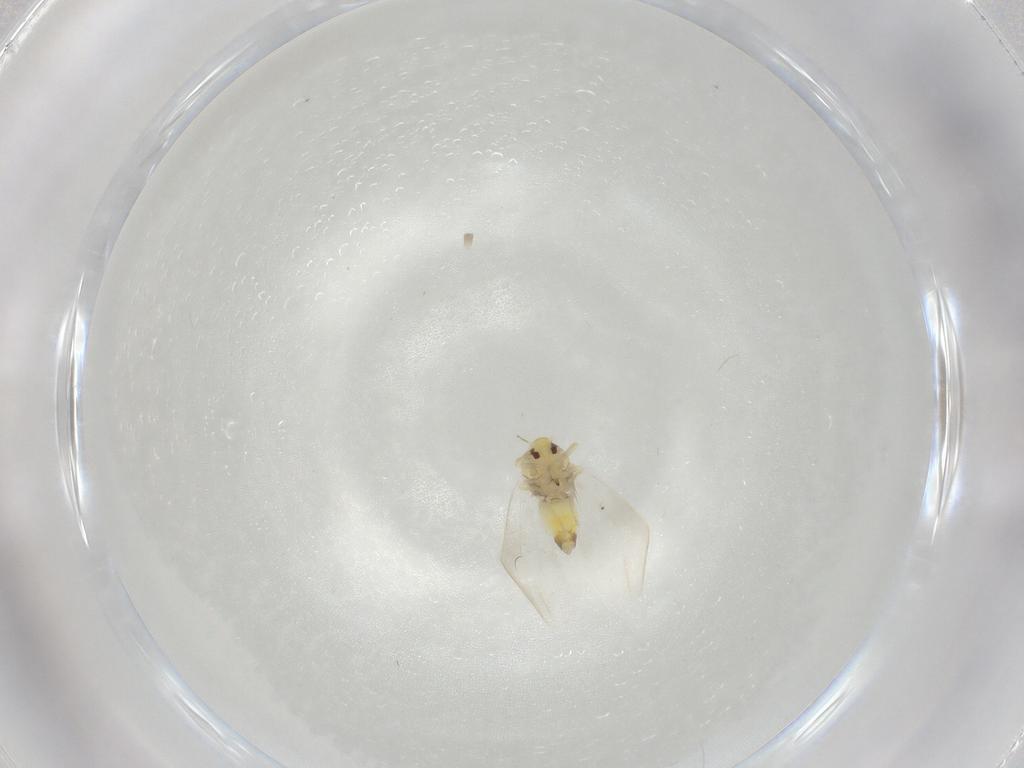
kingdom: Animalia
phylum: Arthropoda
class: Insecta
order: Hemiptera
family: Aleyrodidae
